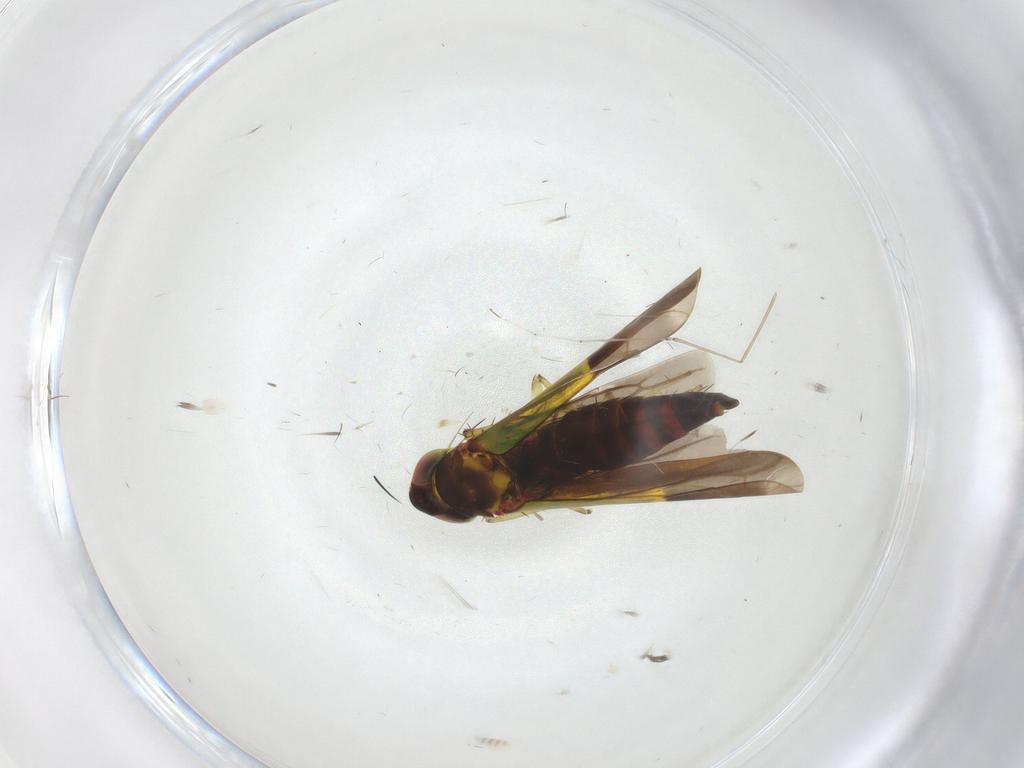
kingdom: Animalia
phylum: Arthropoda
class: Insecta
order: Hemiptera
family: Cicadellidae
